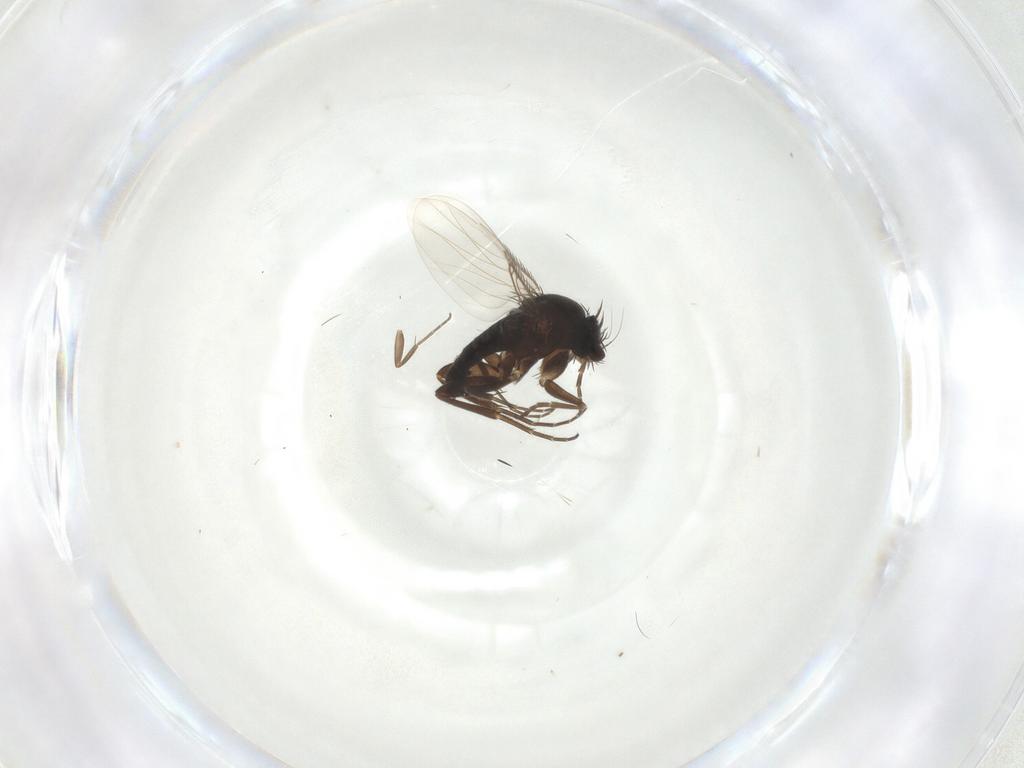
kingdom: Animalia
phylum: Arthropoda
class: Insecta
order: Diptera
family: Phoridae
